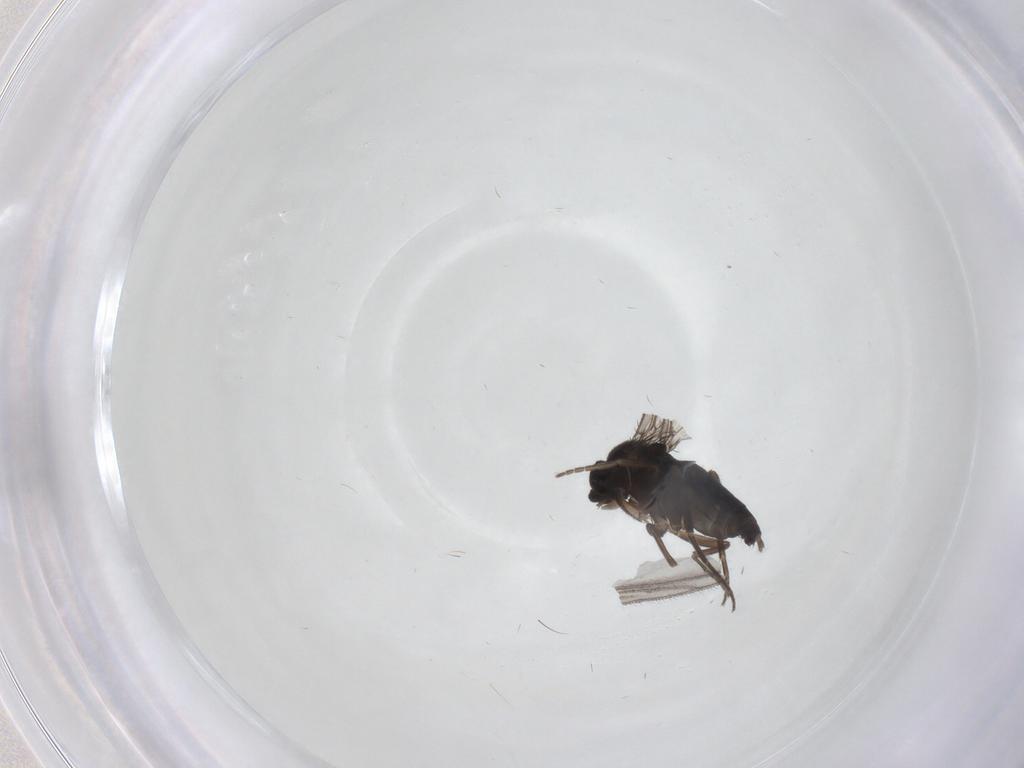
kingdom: Animalia
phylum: Arthropoda
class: Insecta
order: Diptera
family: Phoridae
